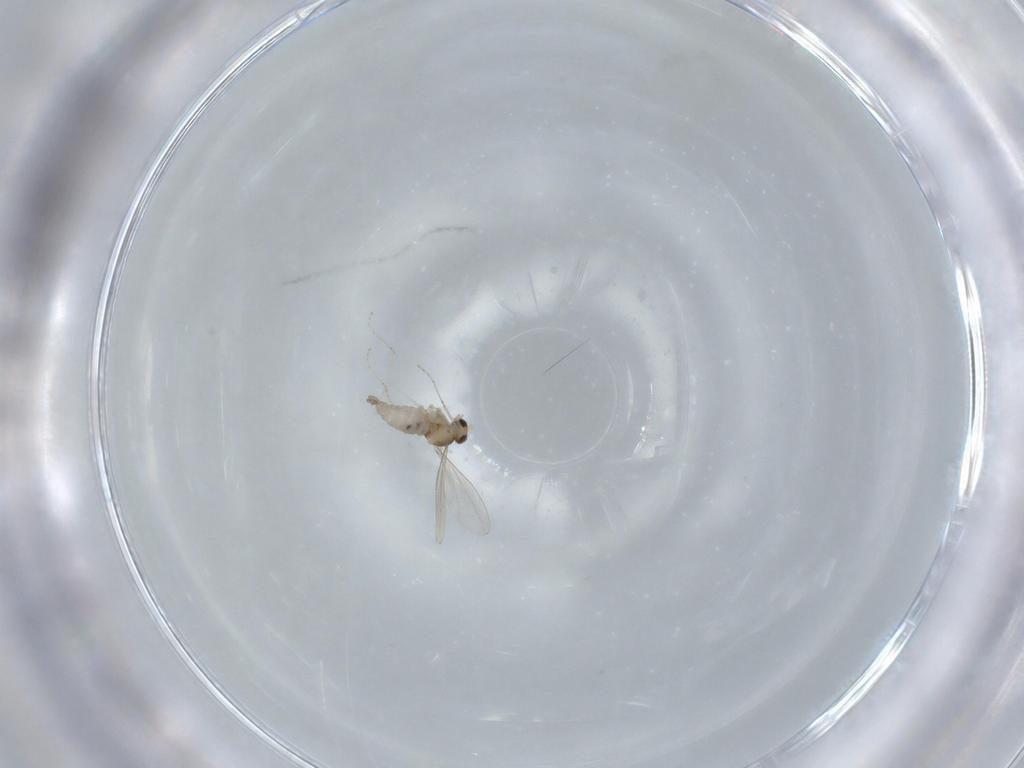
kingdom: Animalia
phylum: Arthropoda
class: Insecta
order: Diptera
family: Cecidomyiidae
